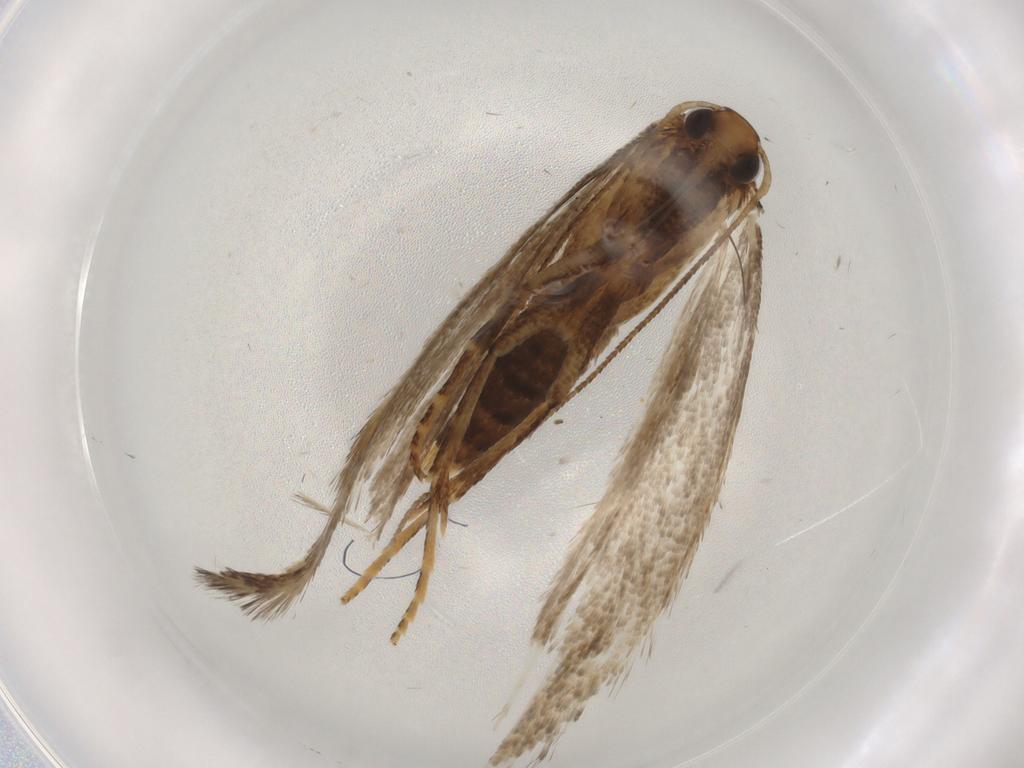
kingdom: Animalia
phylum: Arthropoda
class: Insecta
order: Lepidoptera
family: Gelechiidae
